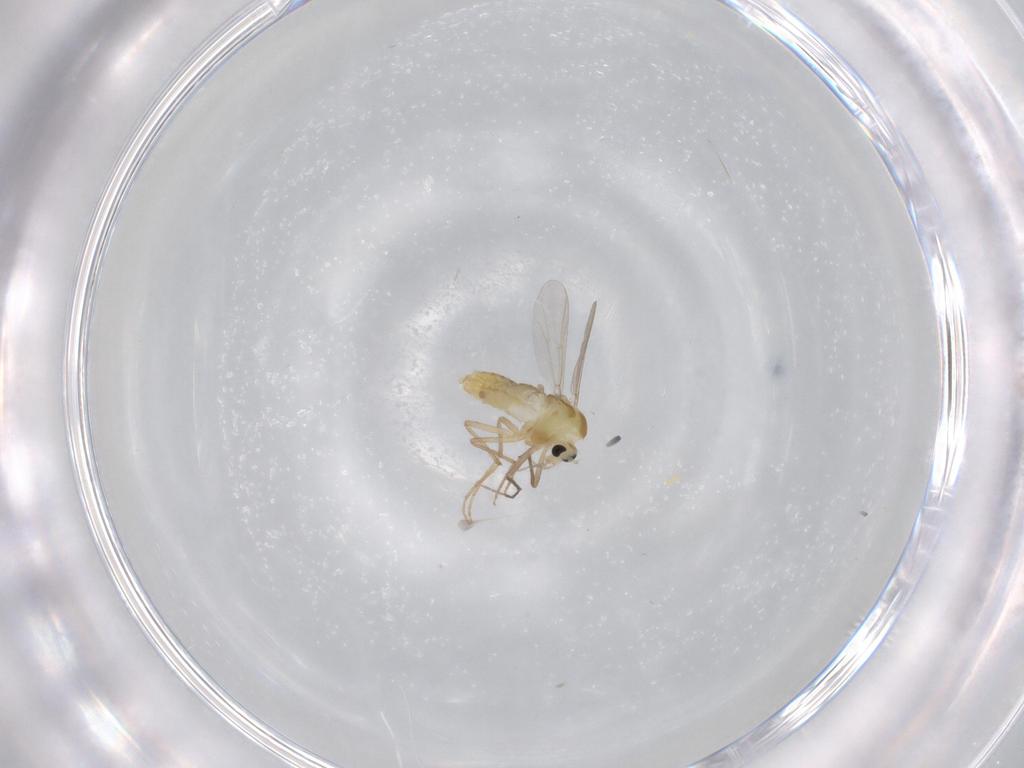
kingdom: Animalia
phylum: Arthropoda
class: Insecta
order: Diptera
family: Chironomidae
